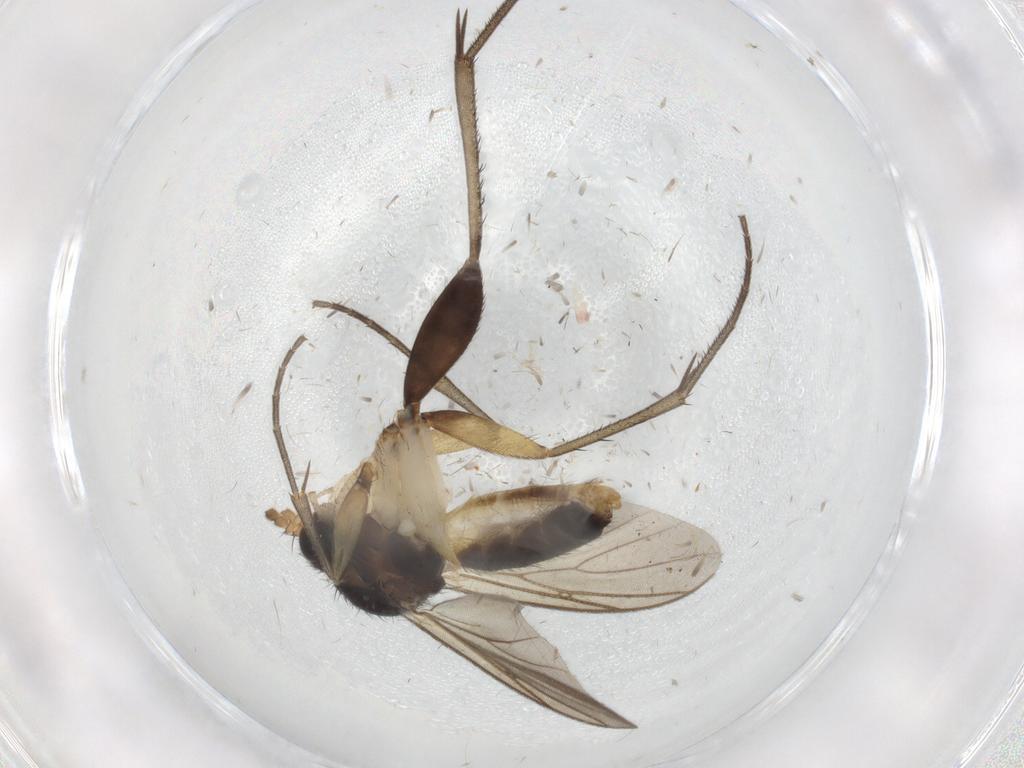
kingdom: Animalia
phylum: Arthropoda
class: Insecta
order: Diptera
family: Mycetophilidae
